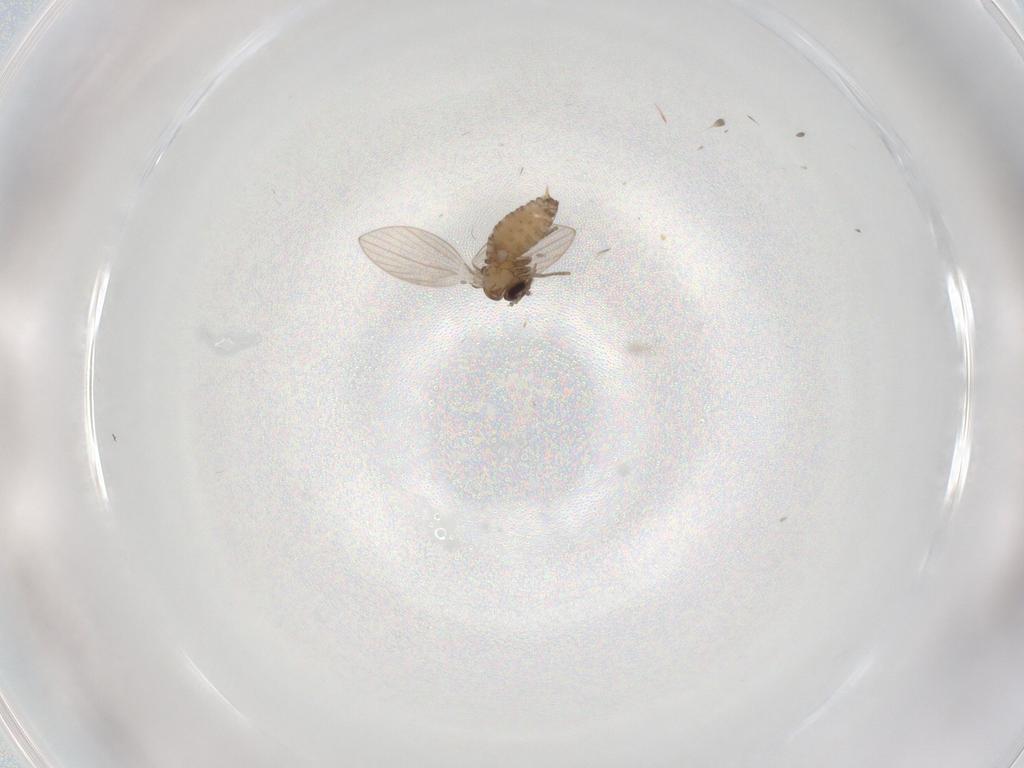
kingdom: Animalia
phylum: Arthropoda
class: Insecta
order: Diptera
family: Psychodidae
